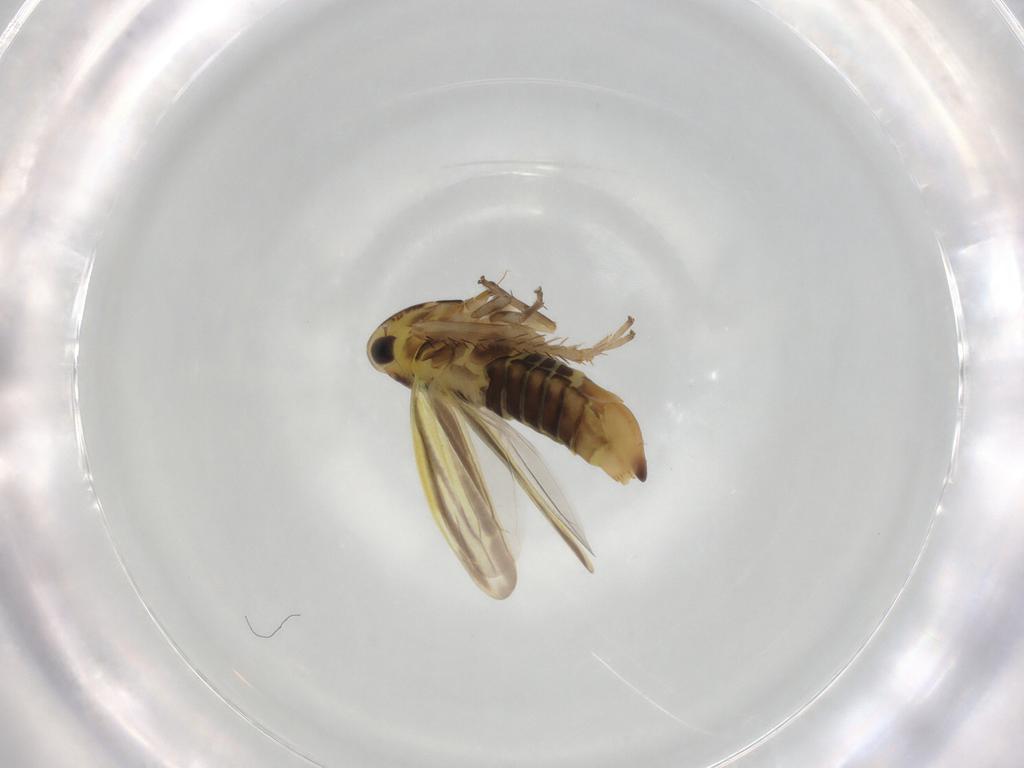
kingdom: Animalia
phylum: Arthropoda
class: Insecta
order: Hemiptera
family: Cicadellidae
